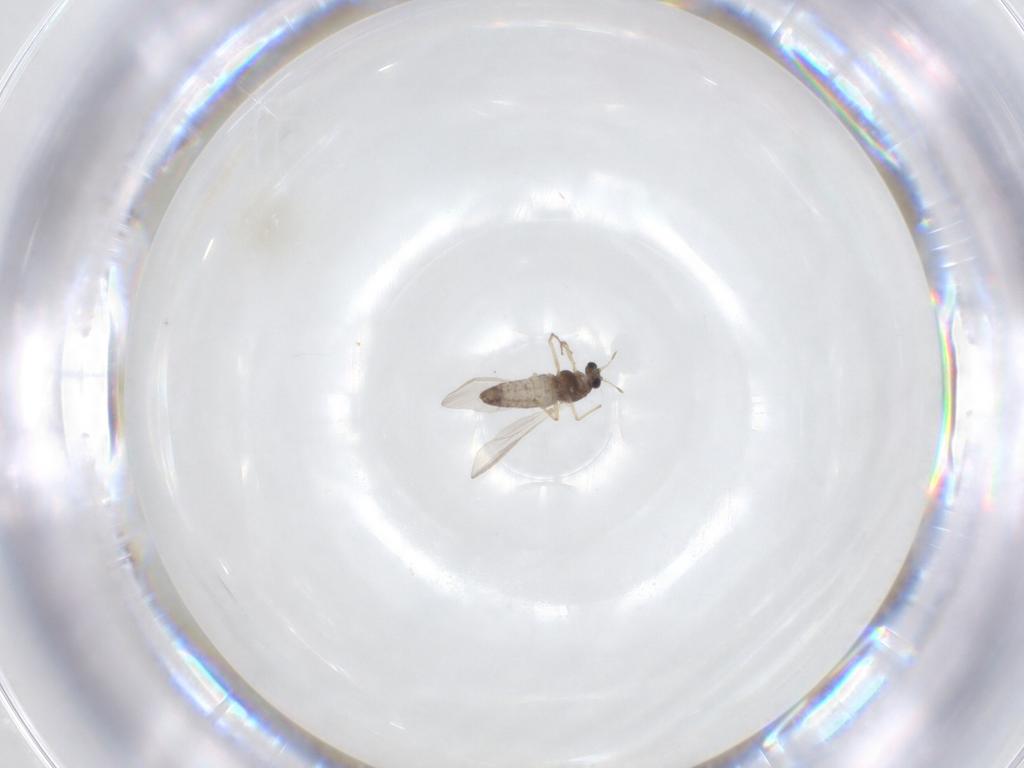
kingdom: Animalia
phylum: Arthropoda
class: Insecta
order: Diptera
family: Chironomidae
